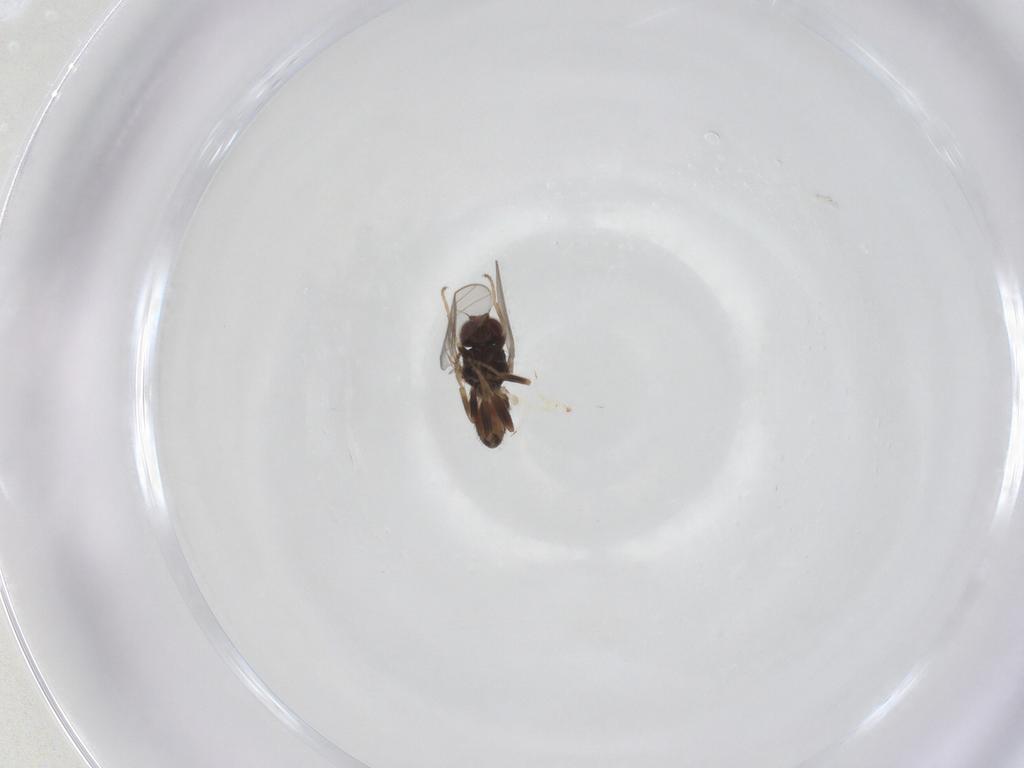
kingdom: Animalia
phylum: Arthropoda
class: Insecta
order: Diptera
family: Chloropidae
